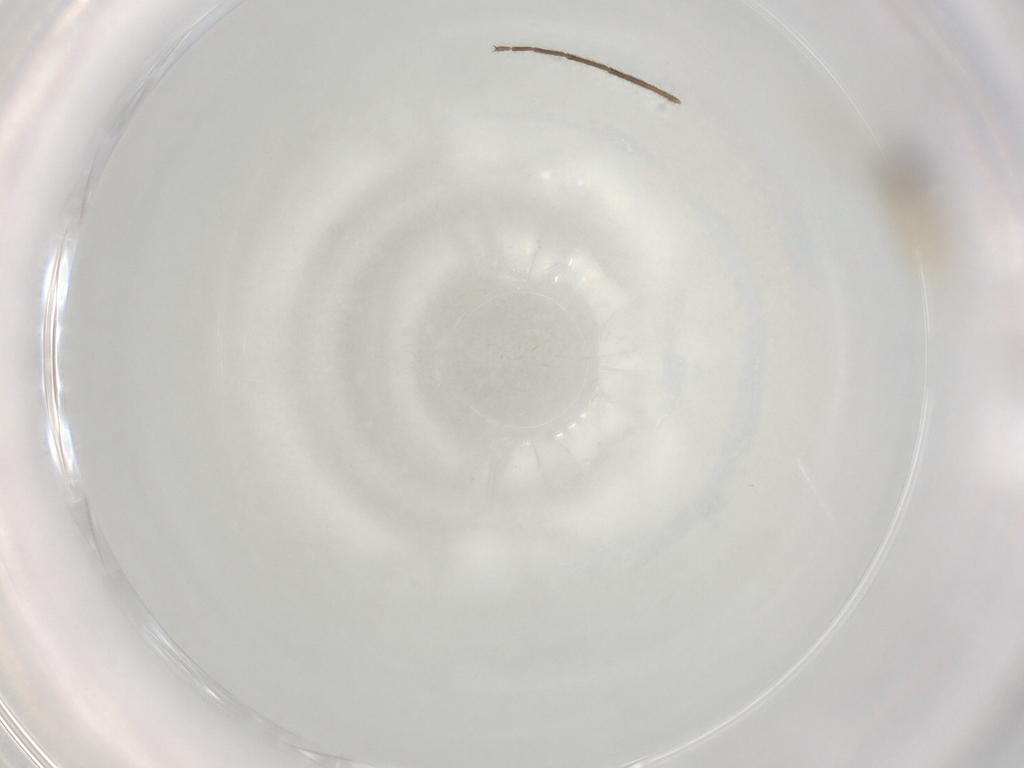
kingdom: Animalia
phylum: Arthropoda
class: Insecta
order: Diptera
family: Chironomidae
